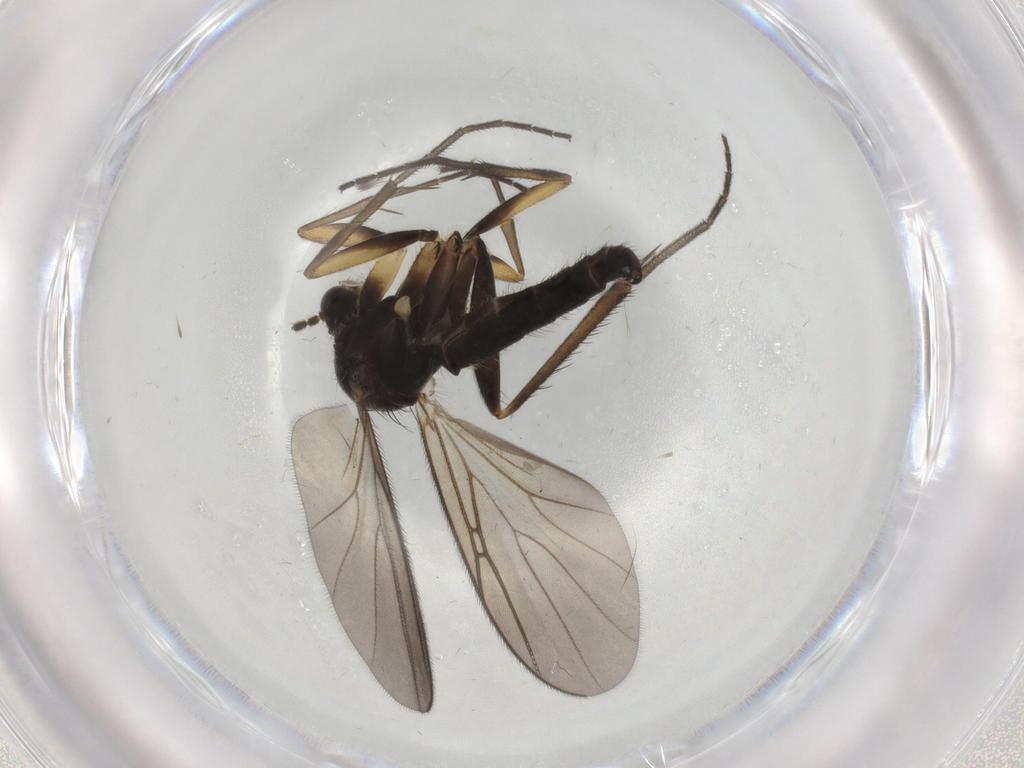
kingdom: Animalia
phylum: Arthropoda
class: Insecta
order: Diptera
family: Mycetophilidae
